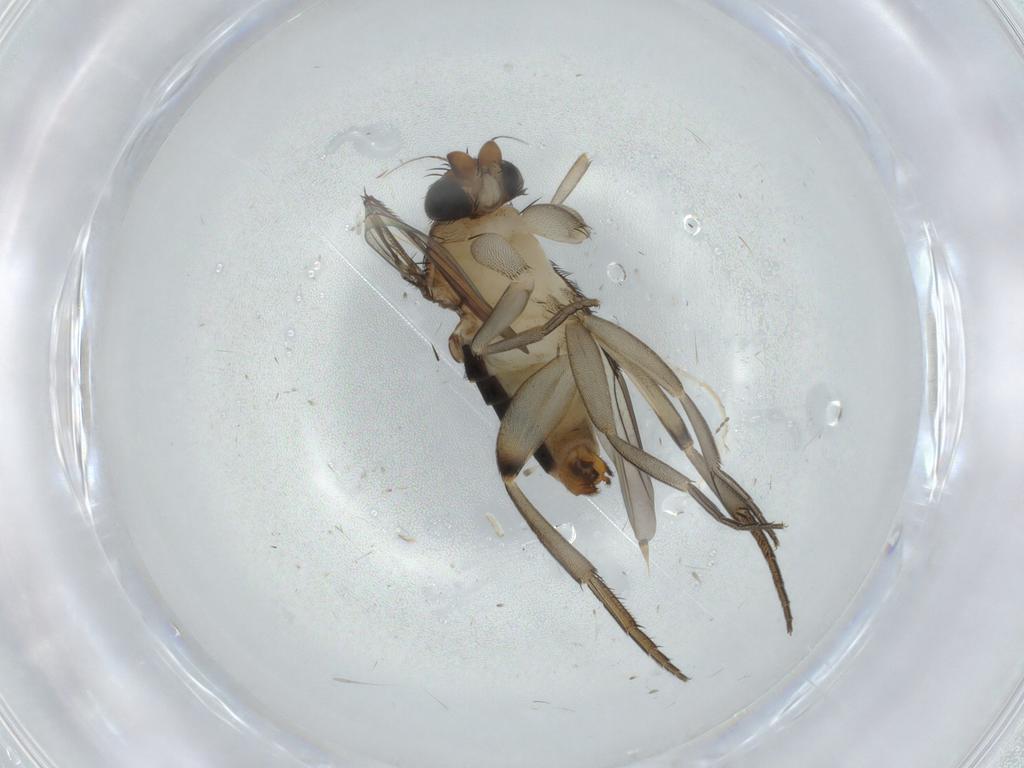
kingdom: Animalia
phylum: Arthropoda
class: Insecta
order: Diptera
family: Phoridae
